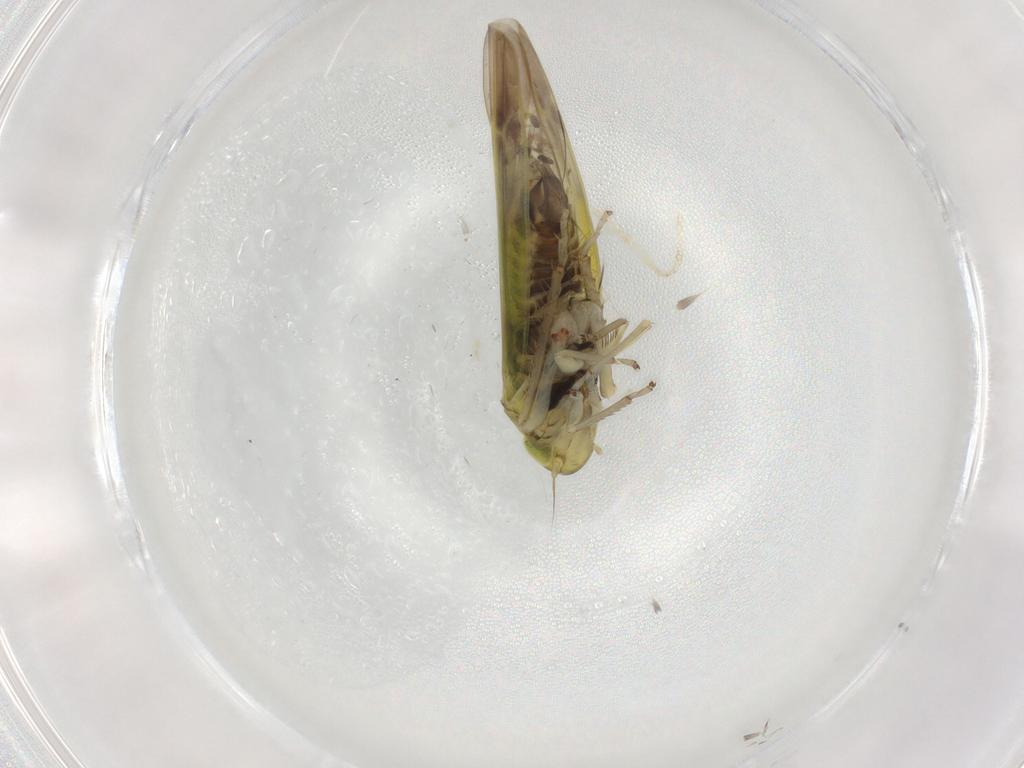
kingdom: Animalia
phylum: Arthropoda
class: Insecta
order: Hemiptera
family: Cicadellidae
